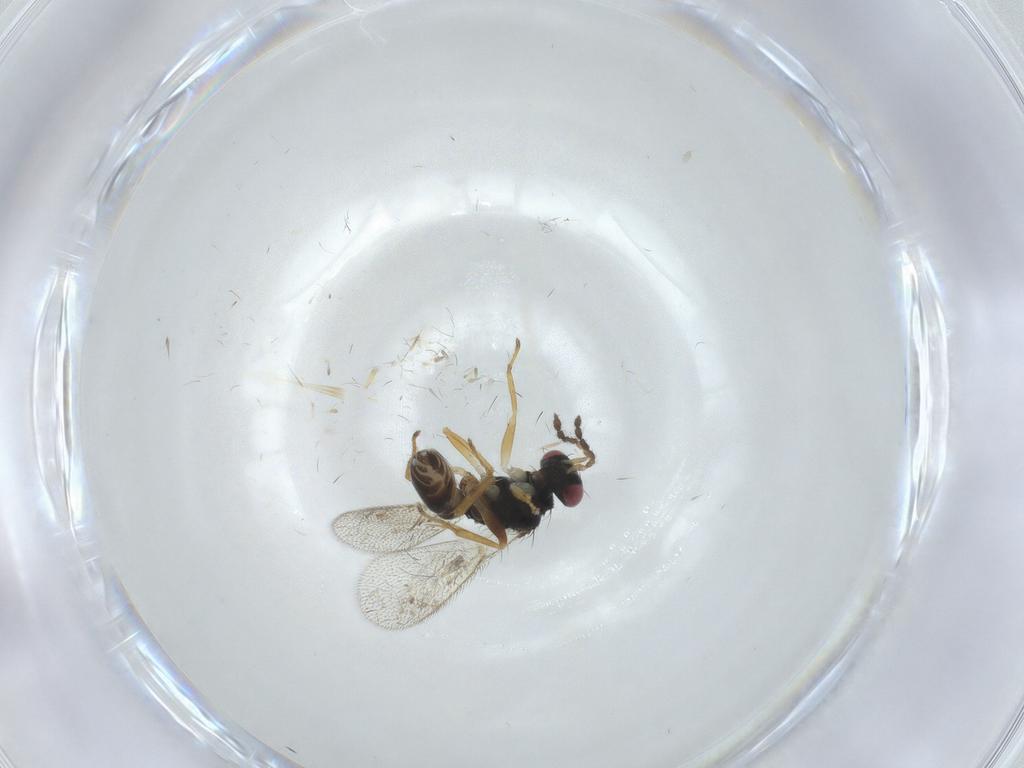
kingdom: Animalia
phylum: Arthropoda
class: Insecta
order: Hymenoptera
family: Eulophidae
